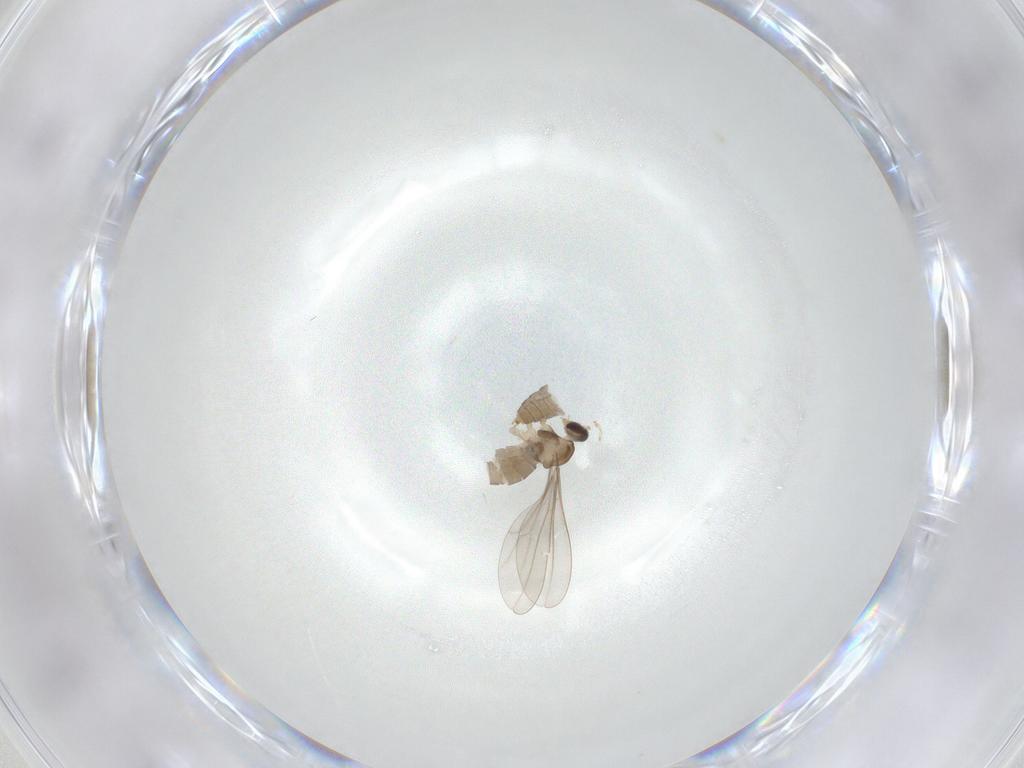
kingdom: Animalia
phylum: Arthropoda
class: Insecta
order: Diptera
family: Cecidomyiidae
